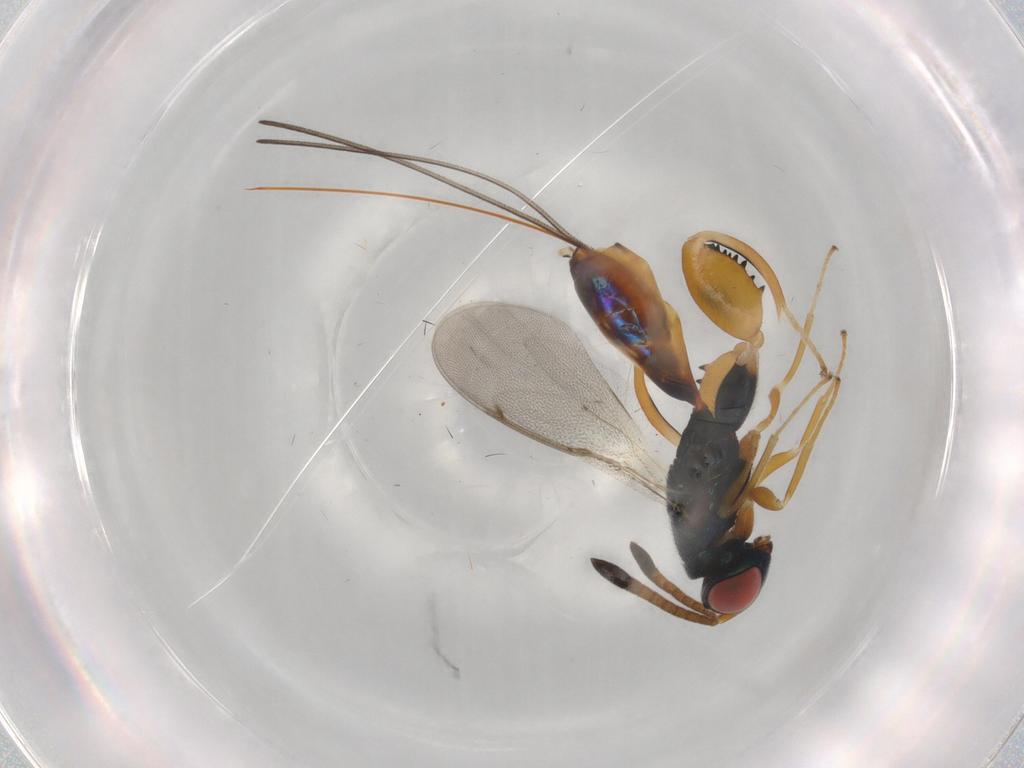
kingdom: Animalia
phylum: Arthropoda
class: Insecta
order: Hymenoptera
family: Torymidae
